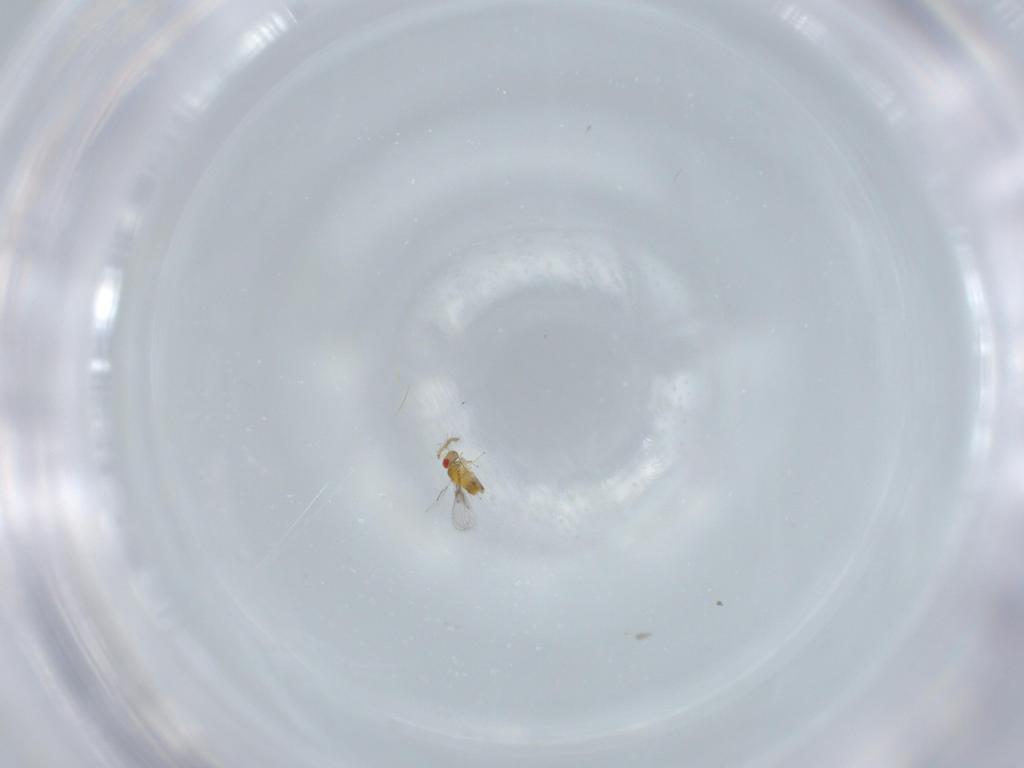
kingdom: Animalia
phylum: Arthropoda
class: Insecta
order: Hymenoptera
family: Trichogrammatidae
